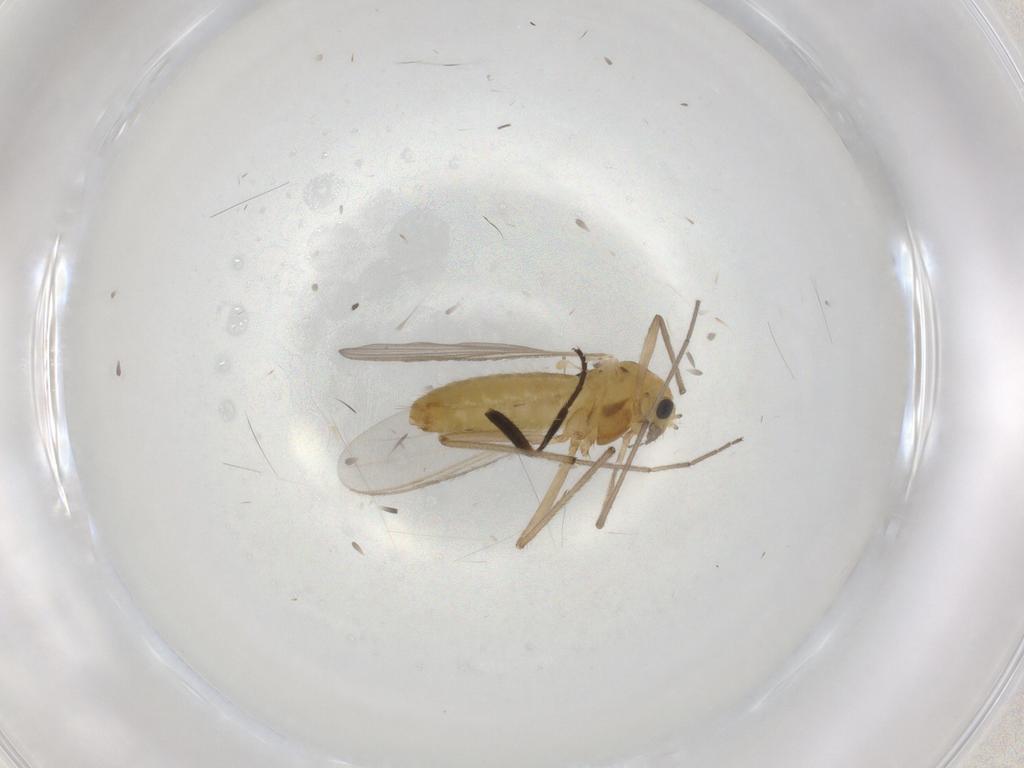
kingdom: Animalia
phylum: Arthropoda
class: Insecta
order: Diptera
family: Chironomidae
